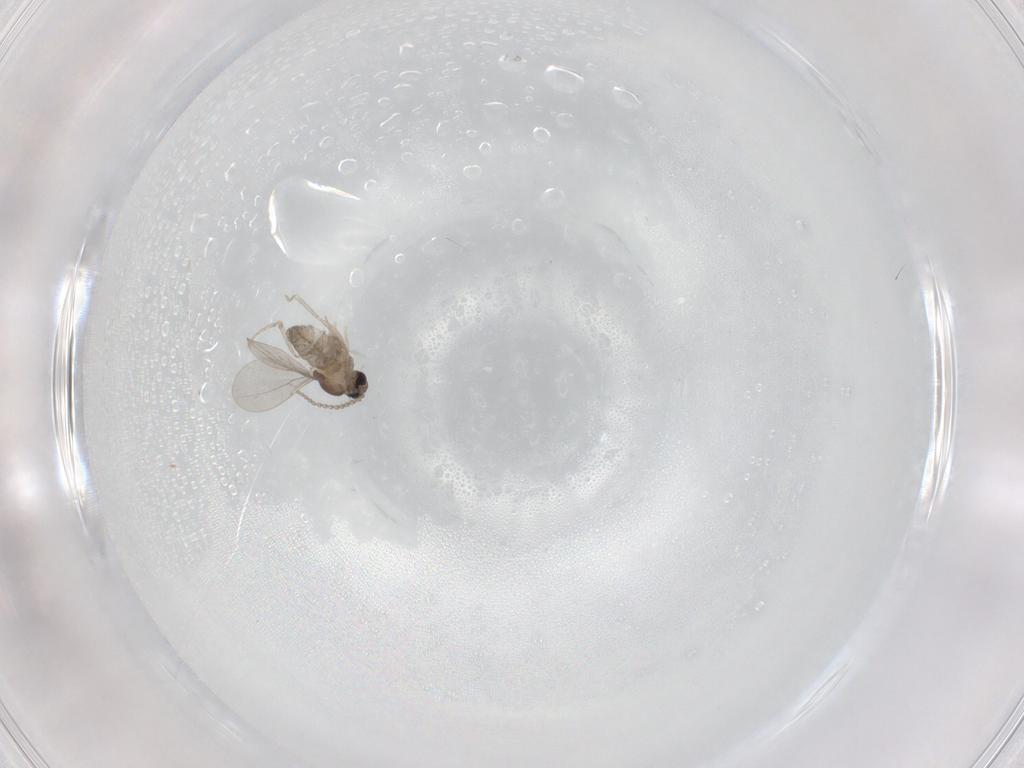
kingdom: Animalia
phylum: Arthropoda
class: Insecta
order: Diptera
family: Cecidomyiidae
